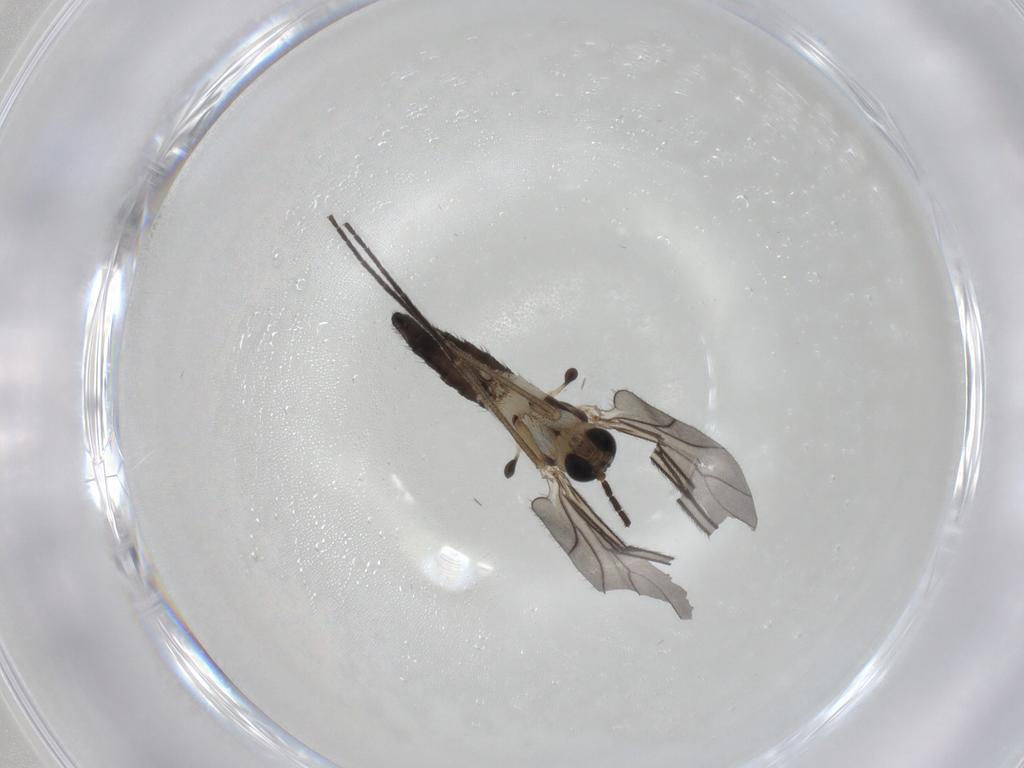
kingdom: Animalia
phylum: Arthropoda
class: Insecta
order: Diptera
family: Sciaridae
